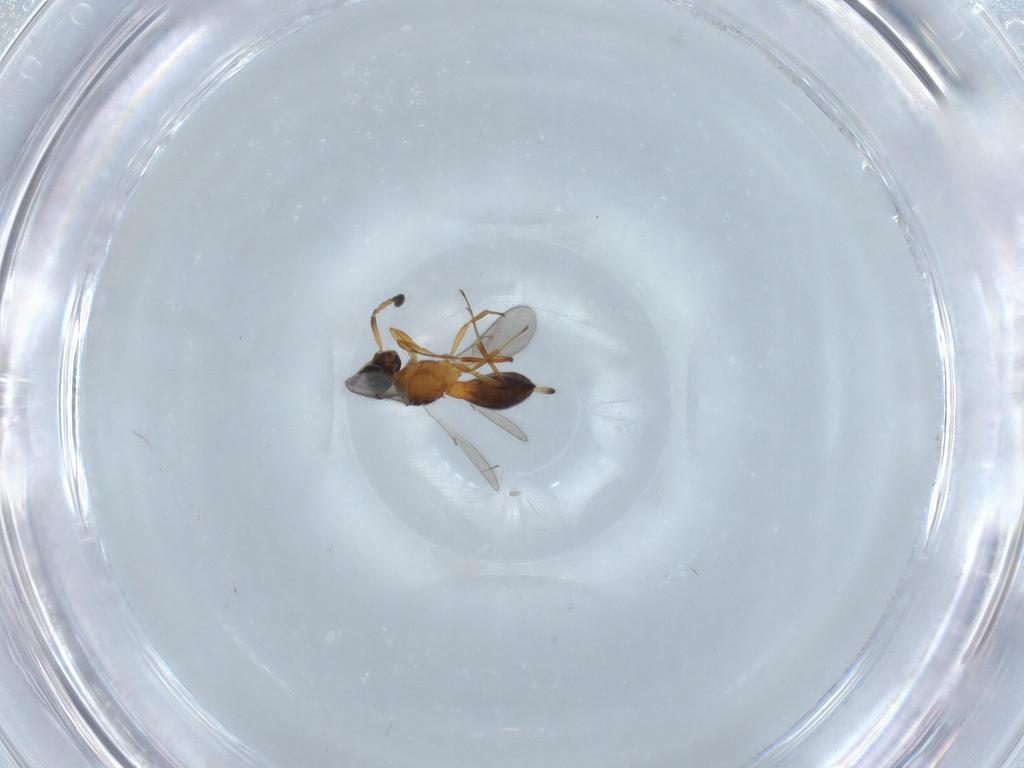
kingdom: Animalia
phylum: Arthropoda
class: Insecta
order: Hymenoptera
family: Scelionidae
